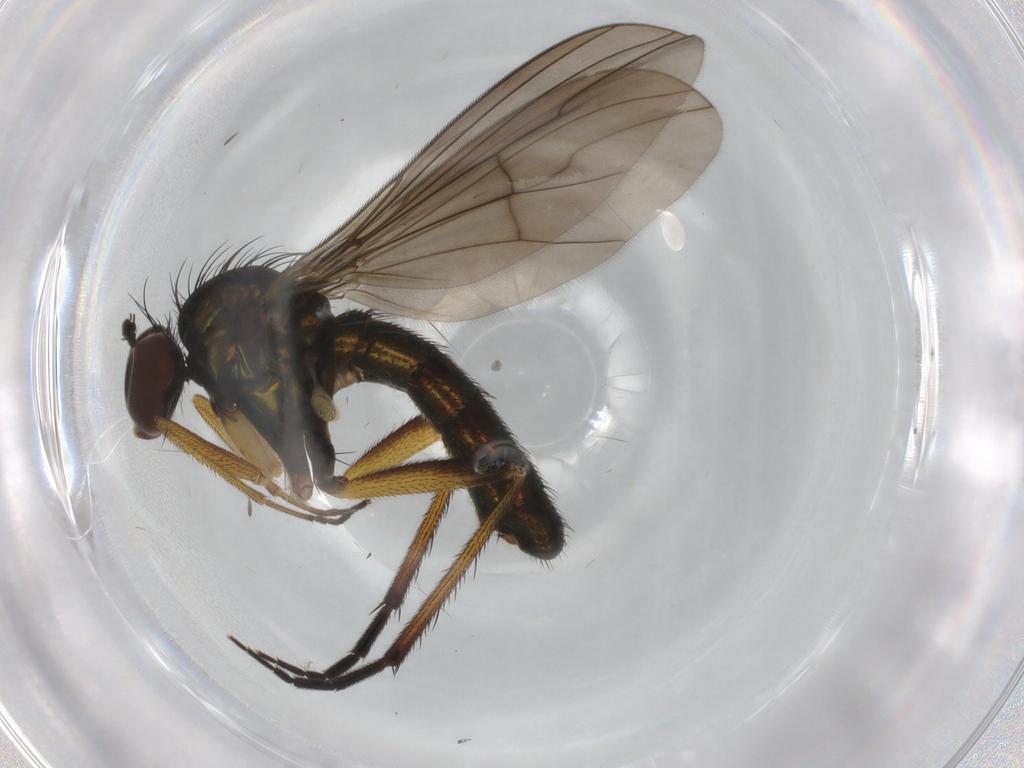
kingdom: Animalia
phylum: Arthropoda
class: Insecta
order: Diptera
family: Dolichopodidae
